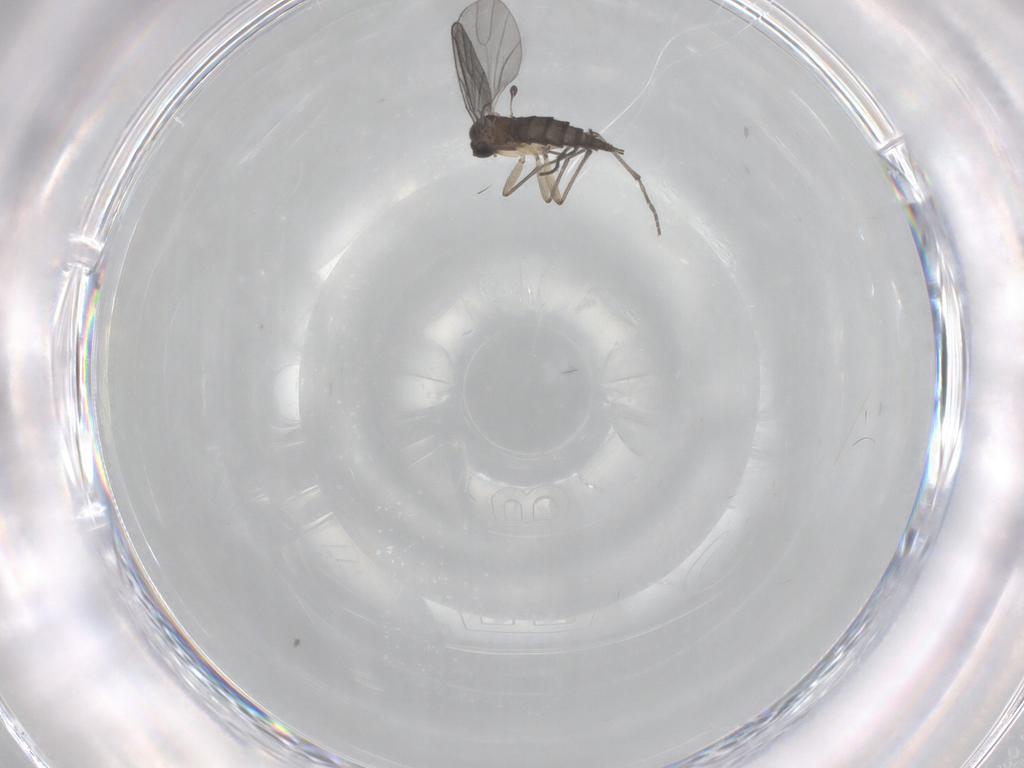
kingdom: Animalia
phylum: Arthropoda
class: Insecta
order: Diptera
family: Sciaridae
